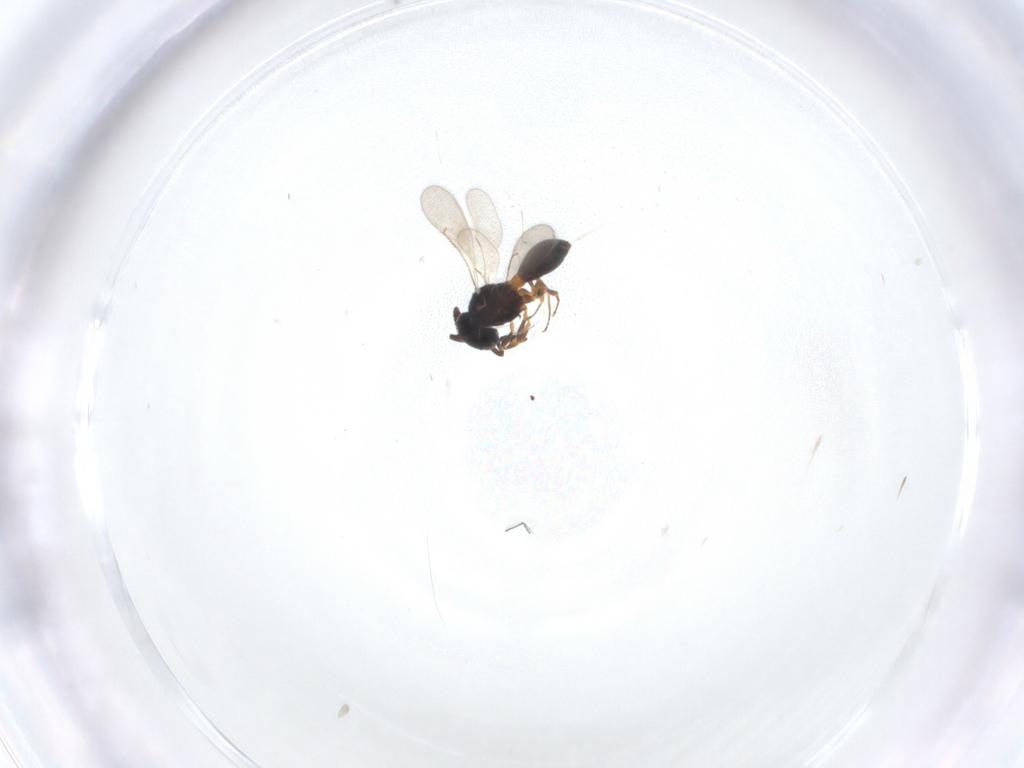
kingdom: Animalia
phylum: Arthropoda
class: Insecta
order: Hymenoptera
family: Scelionidae
